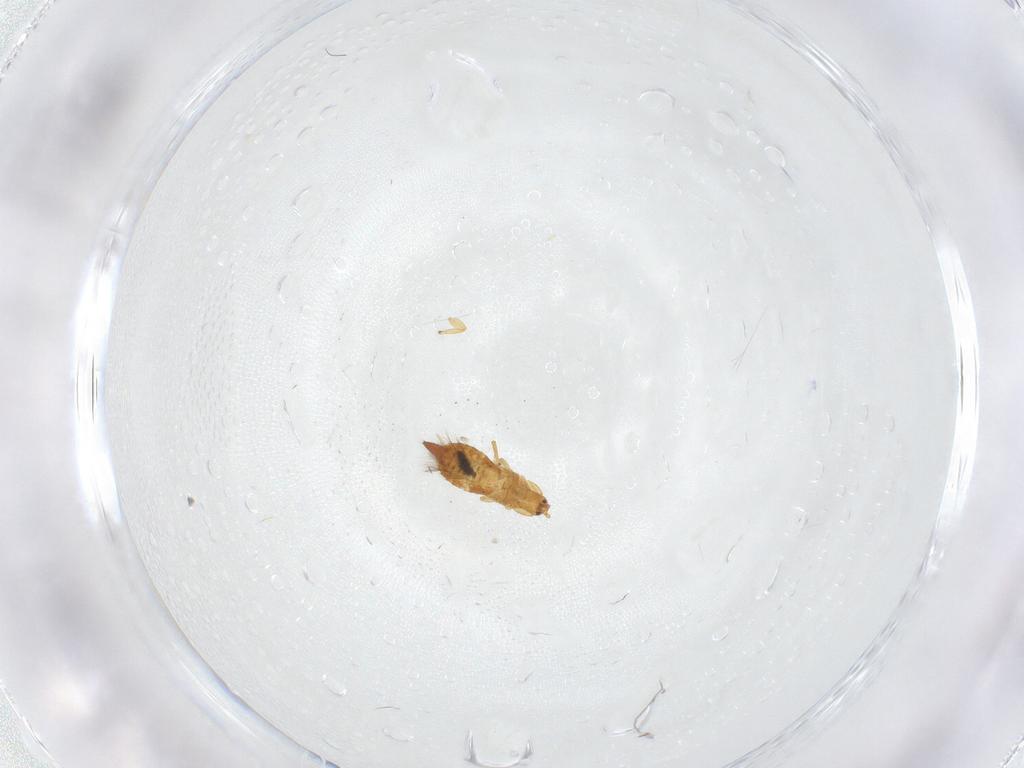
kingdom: Animalia
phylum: Arthropoda
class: Insecta
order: Thysanoptera
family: Phlaeothripidae
